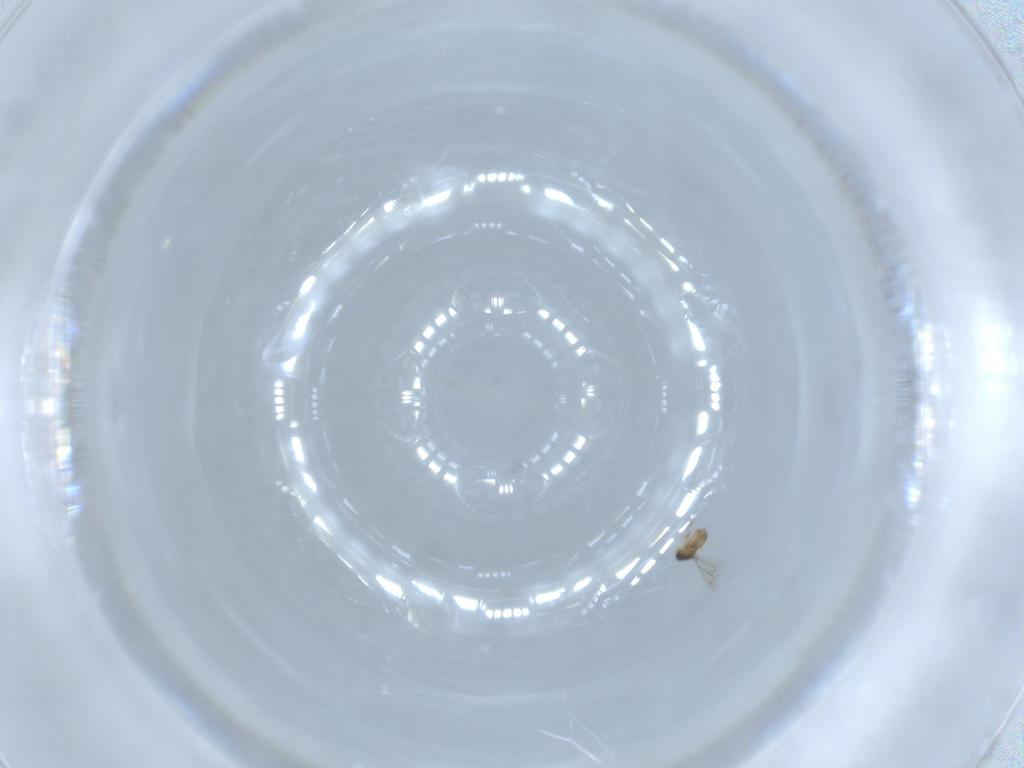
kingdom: Animalia
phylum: Arthropoda
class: Insecta
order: Hymenoptera
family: Mymaridae
